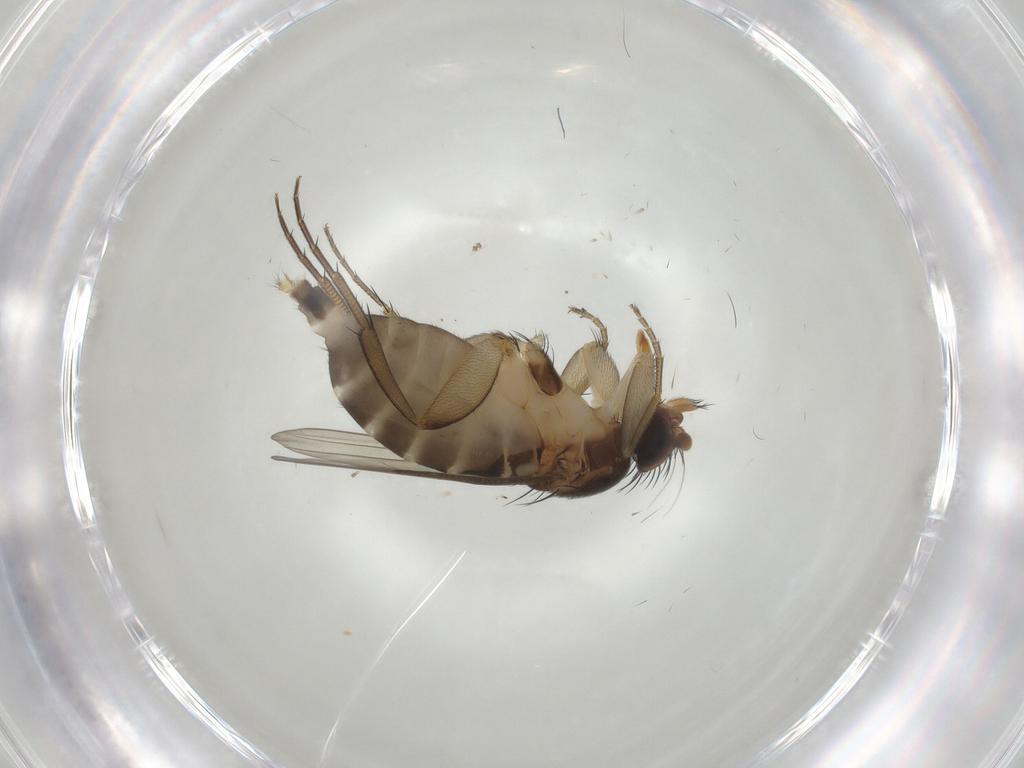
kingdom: Animalia
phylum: Arthropoda
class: Insecta
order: Diptera
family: Phoridae
